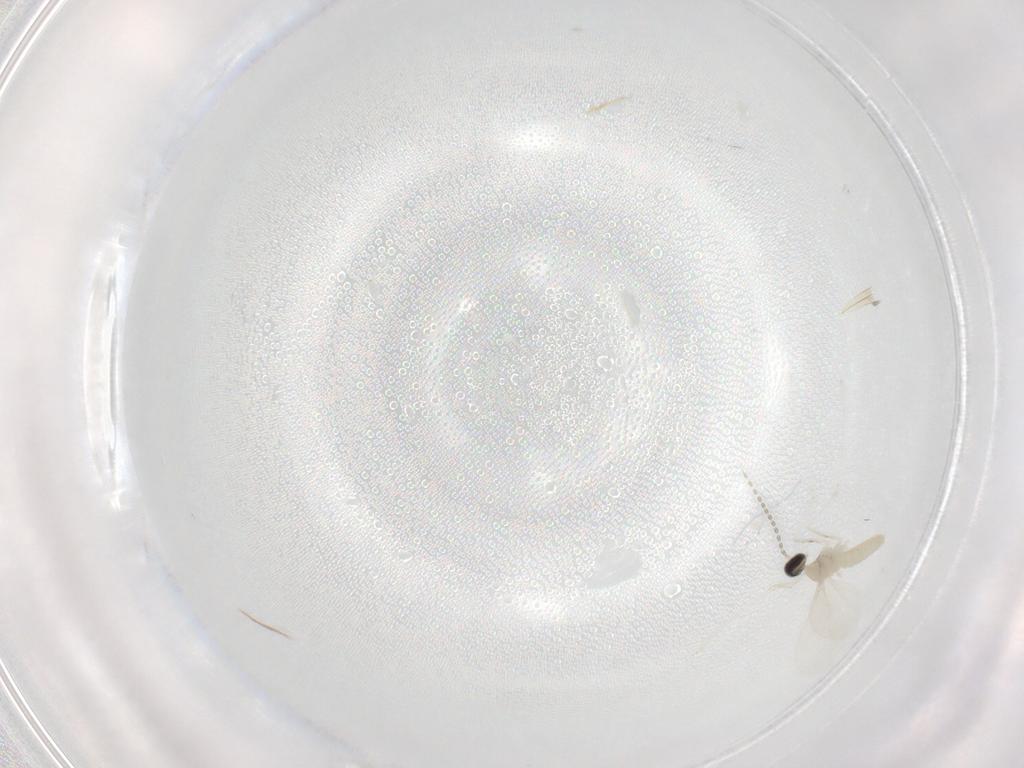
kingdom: Animalia
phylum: Arthropoda
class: Insecta
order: Diptera
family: Cecidomyiidae
